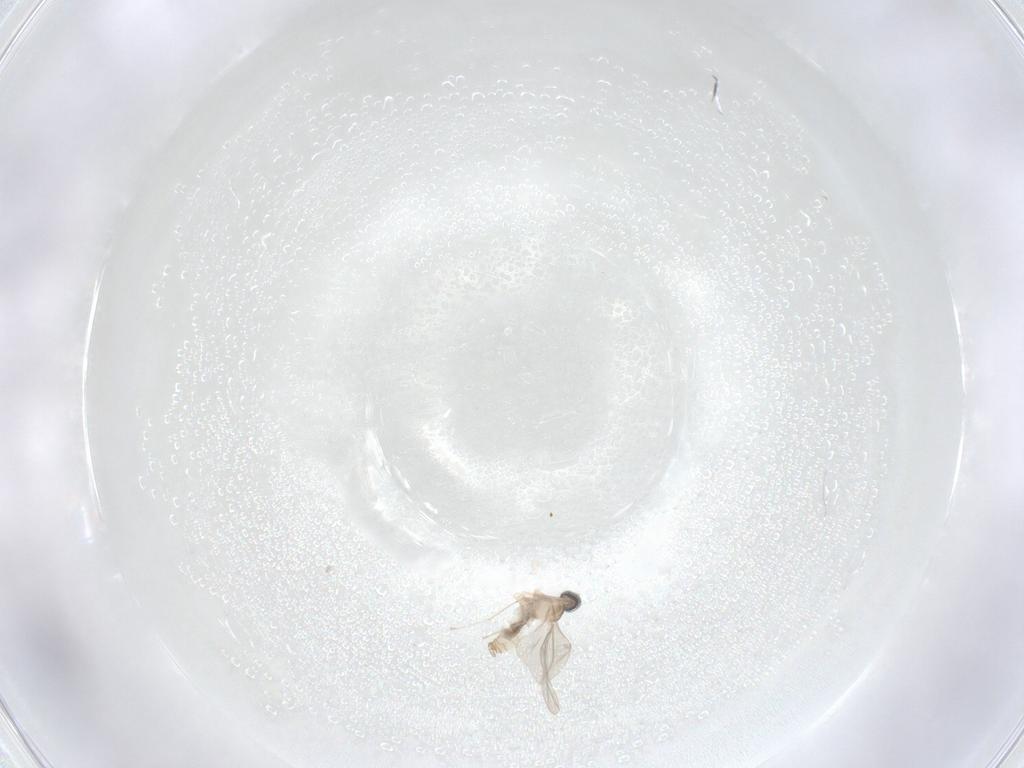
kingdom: Animalia
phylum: Arthropoda
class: Insecta
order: Diptera
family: Cecidomyiidae
